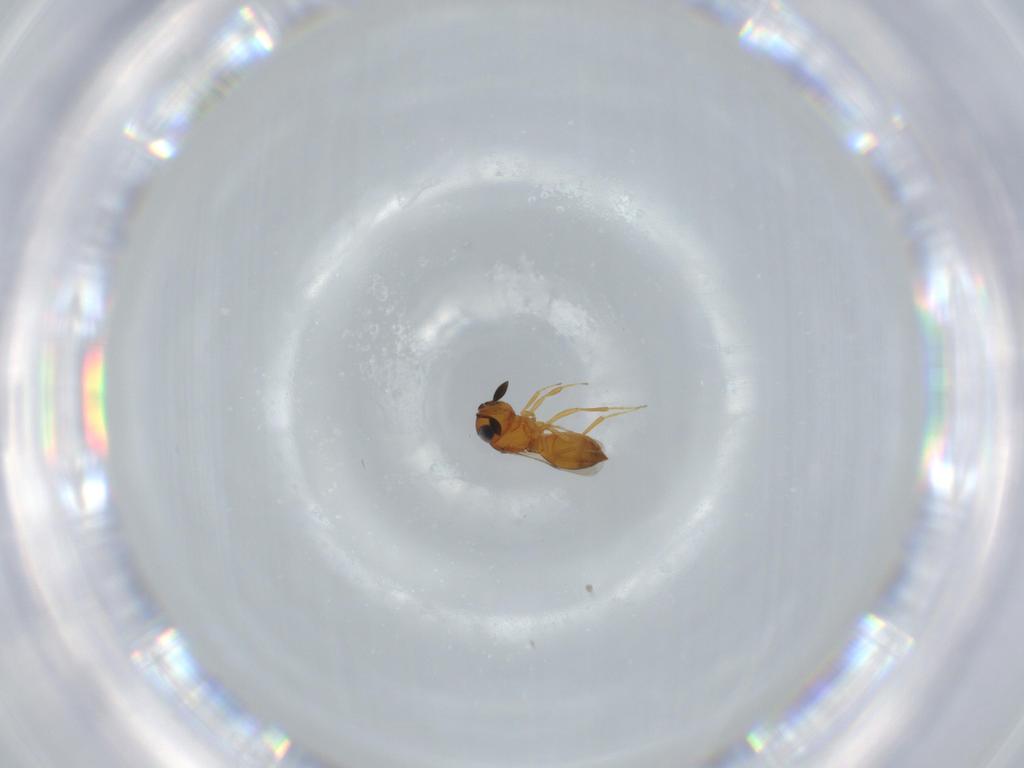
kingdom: Animalia
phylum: Arthropoda
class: Insecta
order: Hymenoptera
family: Scelionidae
